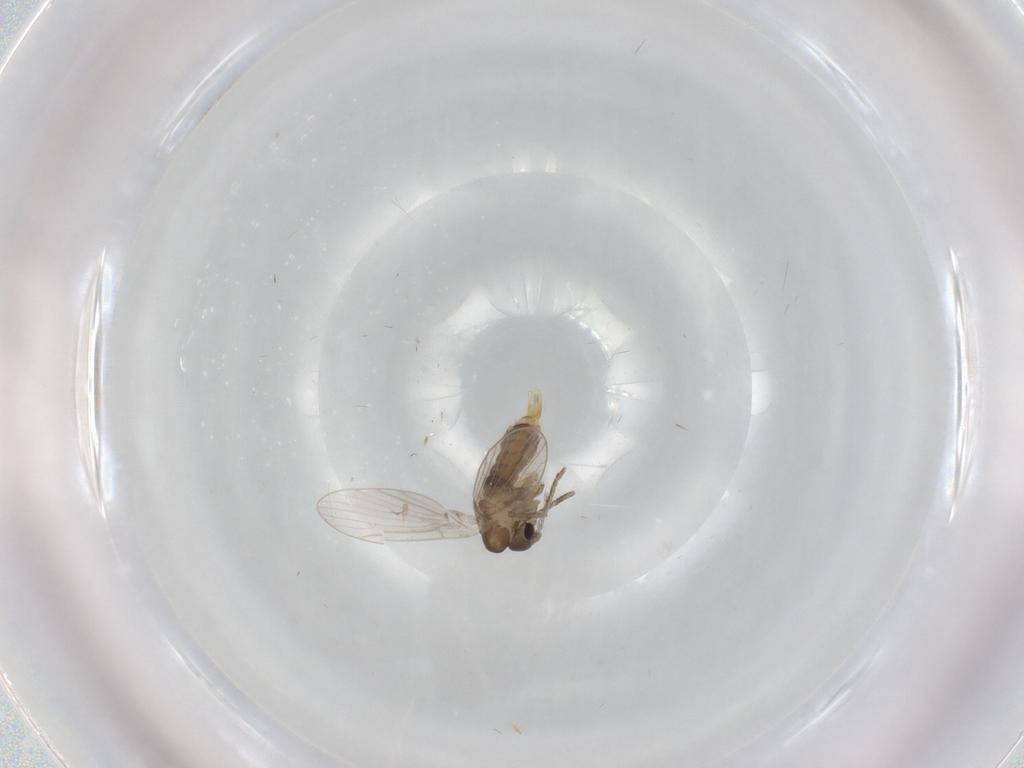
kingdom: Animalia
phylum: Arthropoda
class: Insecta
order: Diptera
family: Psychodidae
